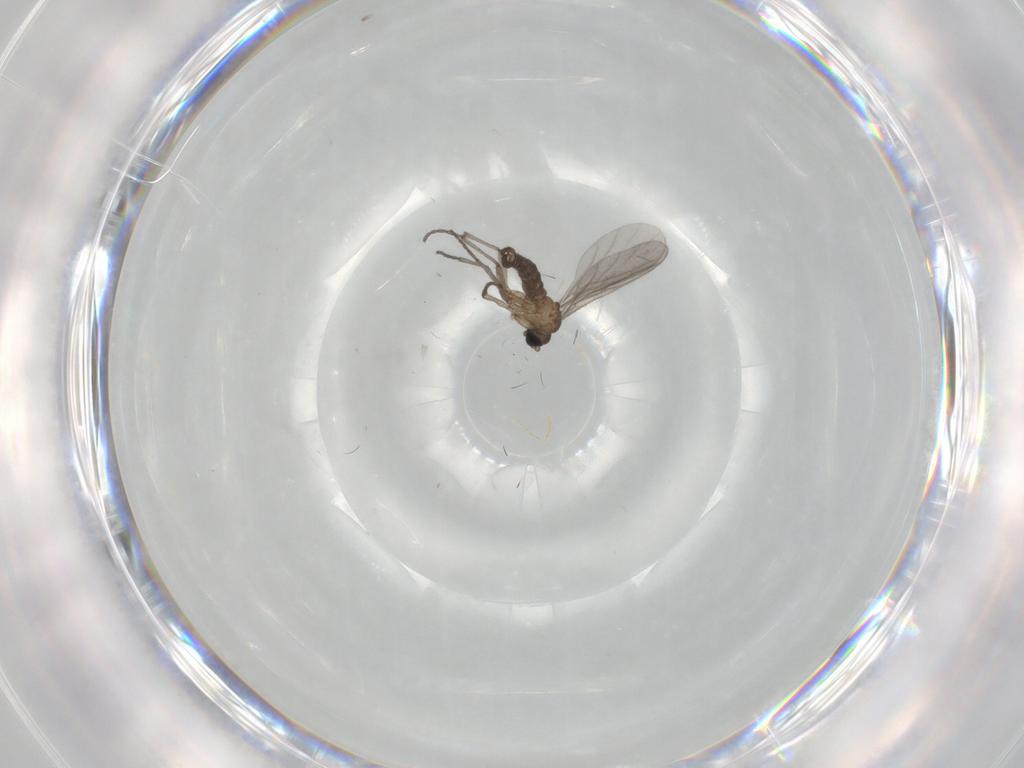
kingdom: Animalia
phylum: Arthropoda
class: Insecta
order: Diptera
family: Sciaridae
